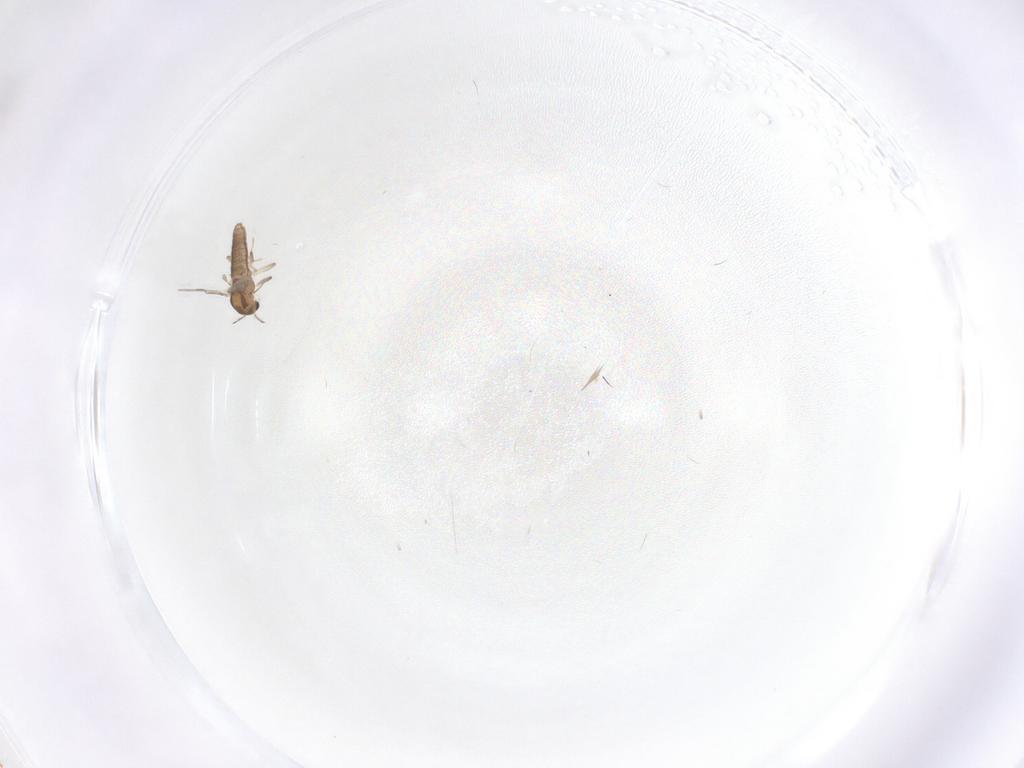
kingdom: Animalia
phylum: Arthropoda
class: Insecta
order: Diptera
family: Chironomidae
